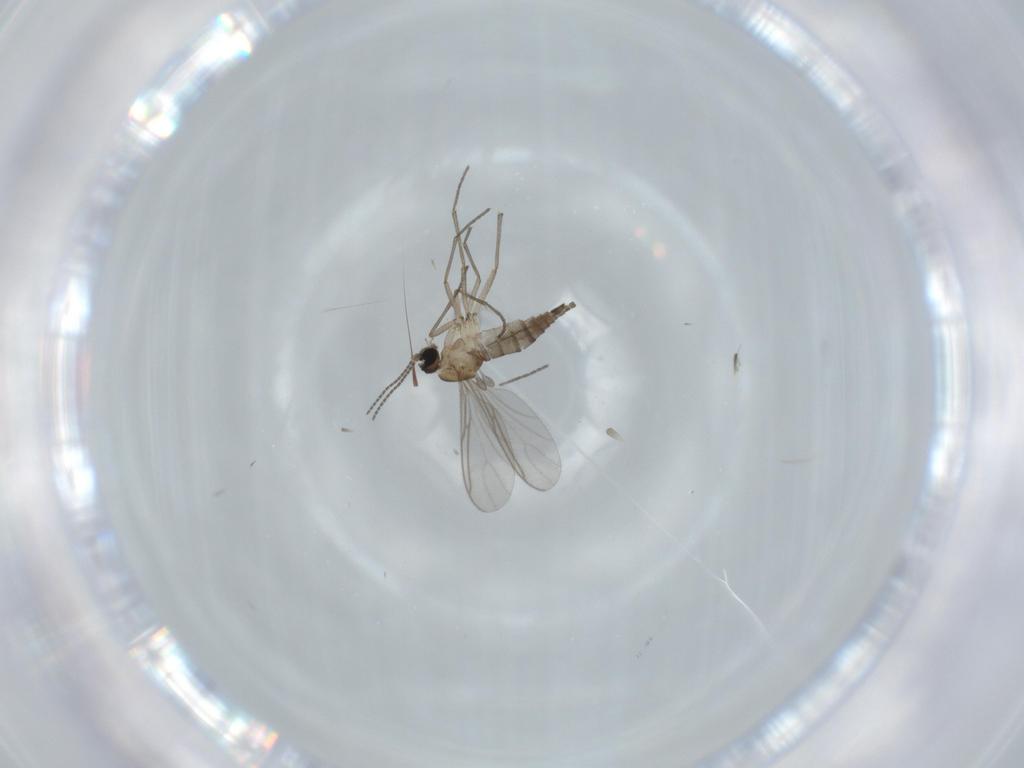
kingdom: Animalia
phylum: Arthropoda
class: Insecta
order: Diptera
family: Sciaridae
